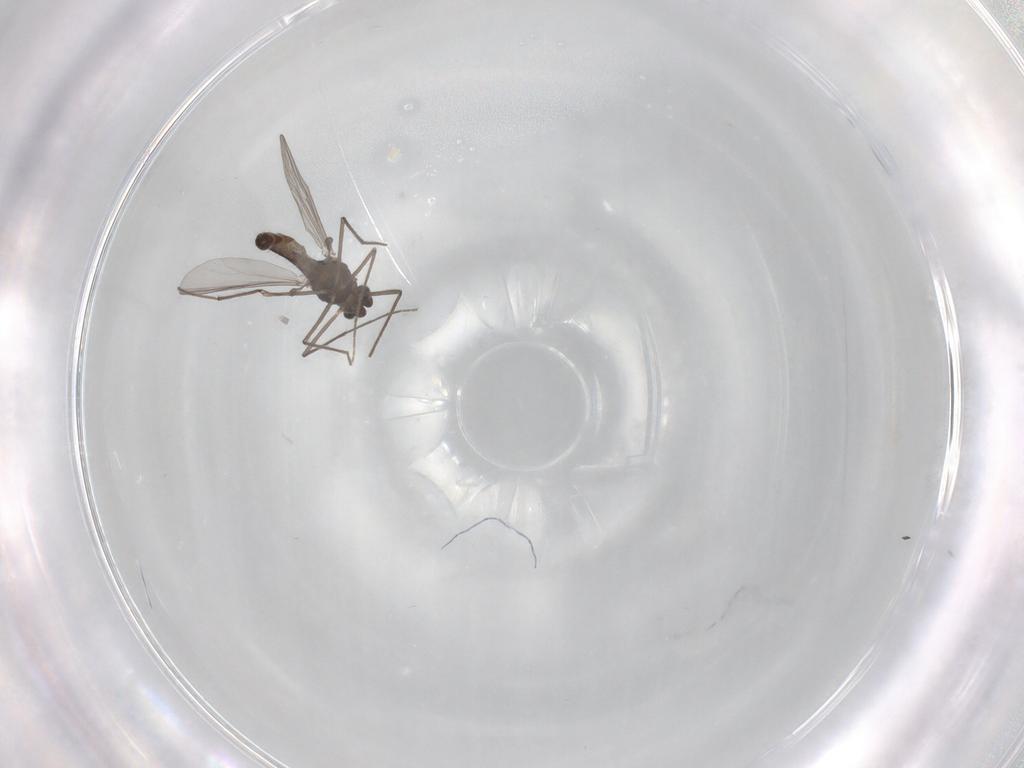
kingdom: Animalia
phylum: Arthropoda
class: Insecta
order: Diptera
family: Chironomidae
